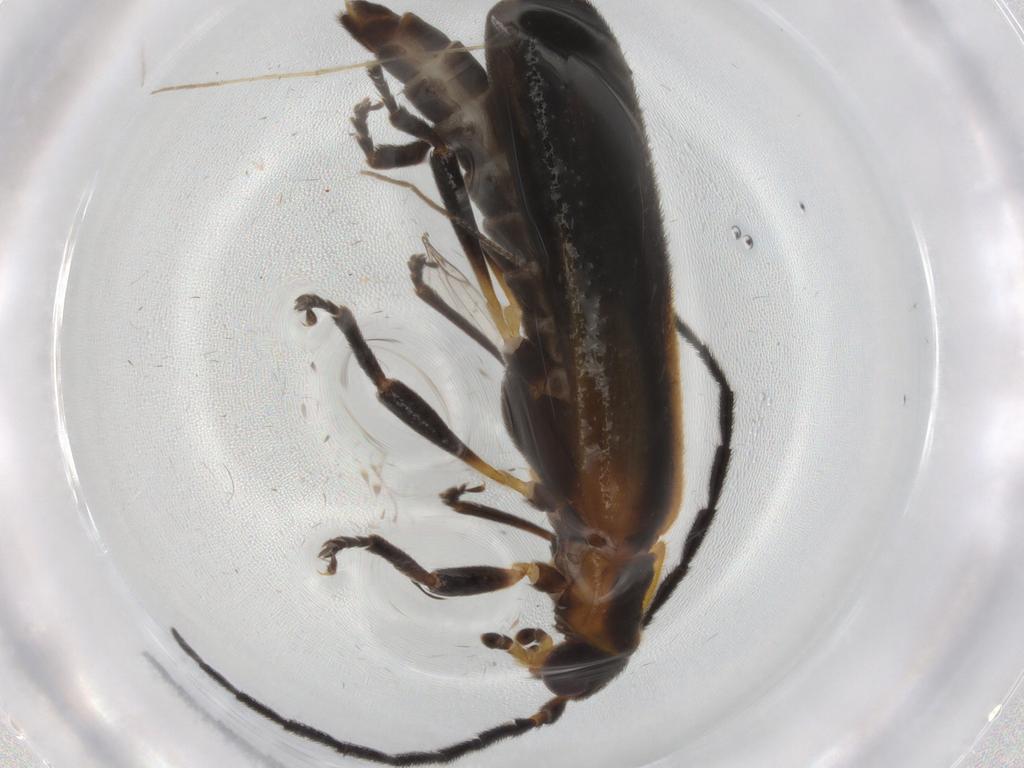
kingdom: Animalia
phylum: Arthropoda
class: Insecta
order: Coleoptera
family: Lycidae
